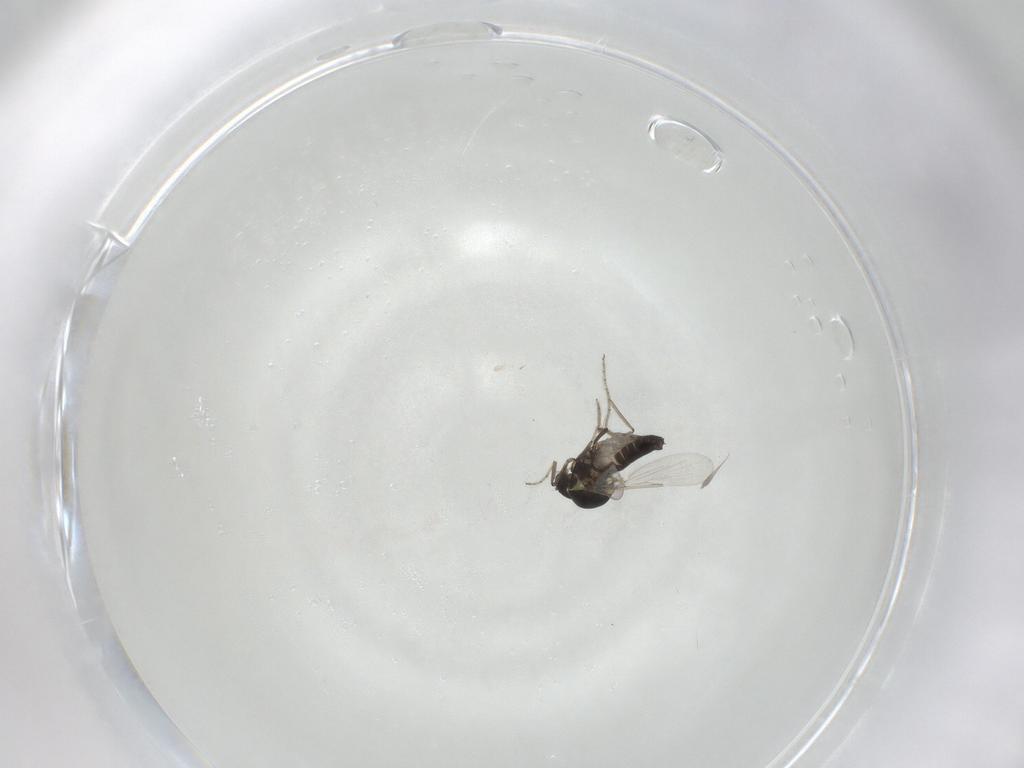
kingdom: Animalia
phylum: Arthropoda
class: Insecta
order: Diptera
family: Ceratopogonidae
